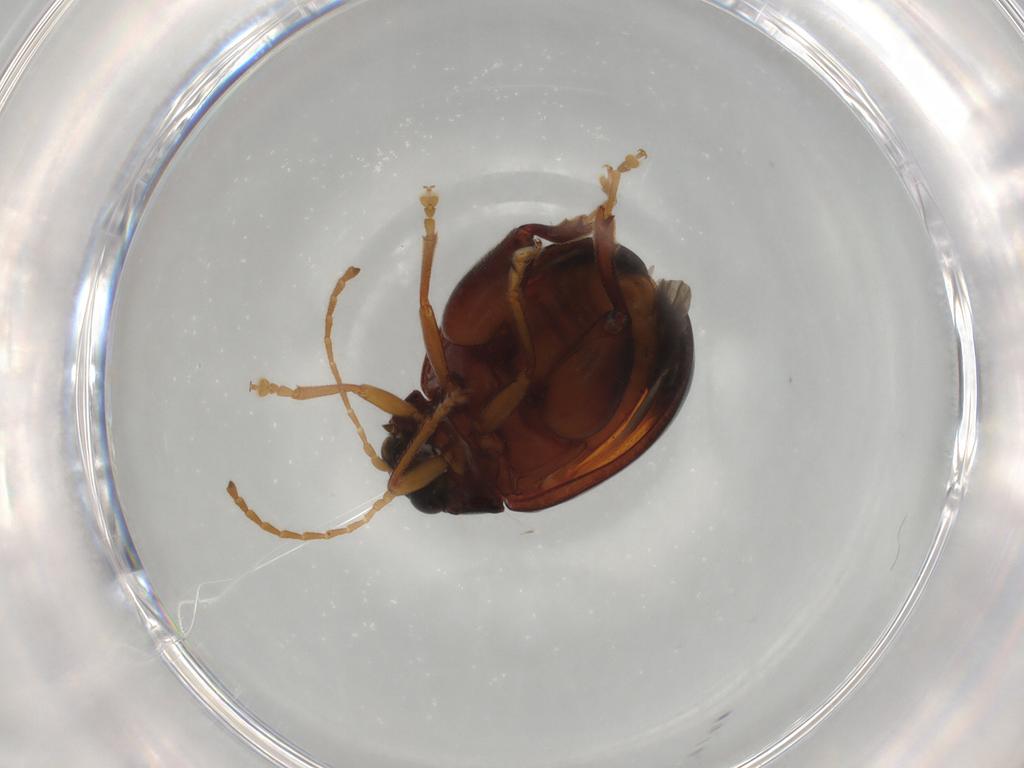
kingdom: Animalia
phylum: Arthropoda
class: Insecta
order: Coleoptera
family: Chrysomelidae
